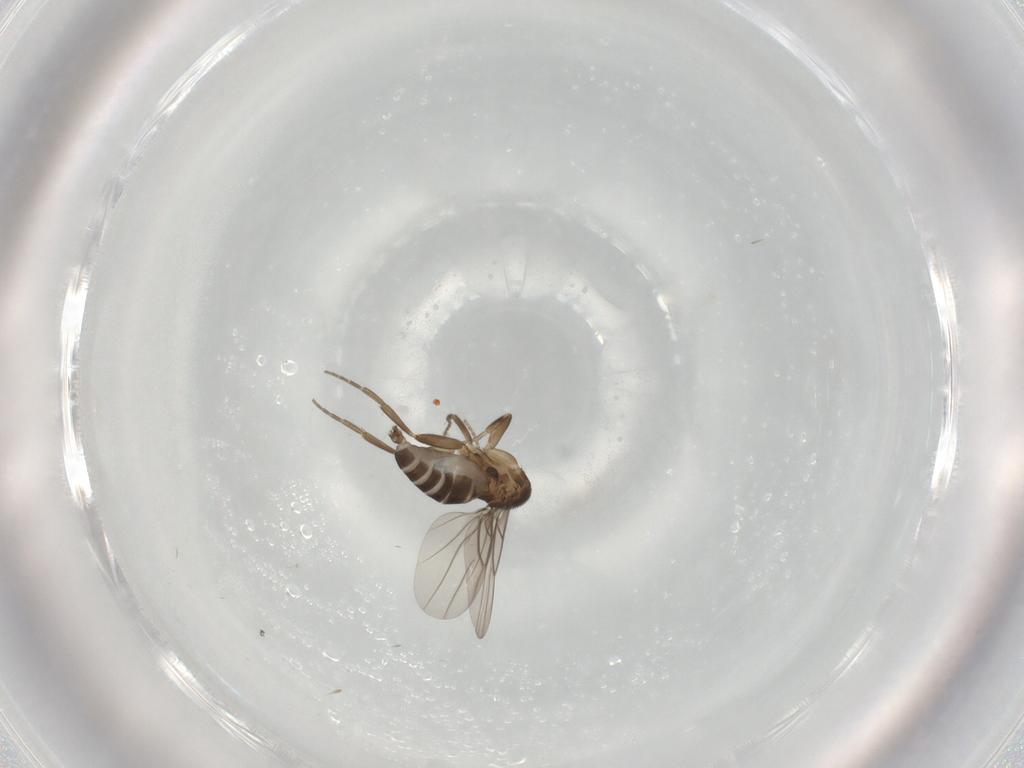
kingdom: Animalia
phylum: Arthropoda
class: Insecta
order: Diptera
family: Phoridae
